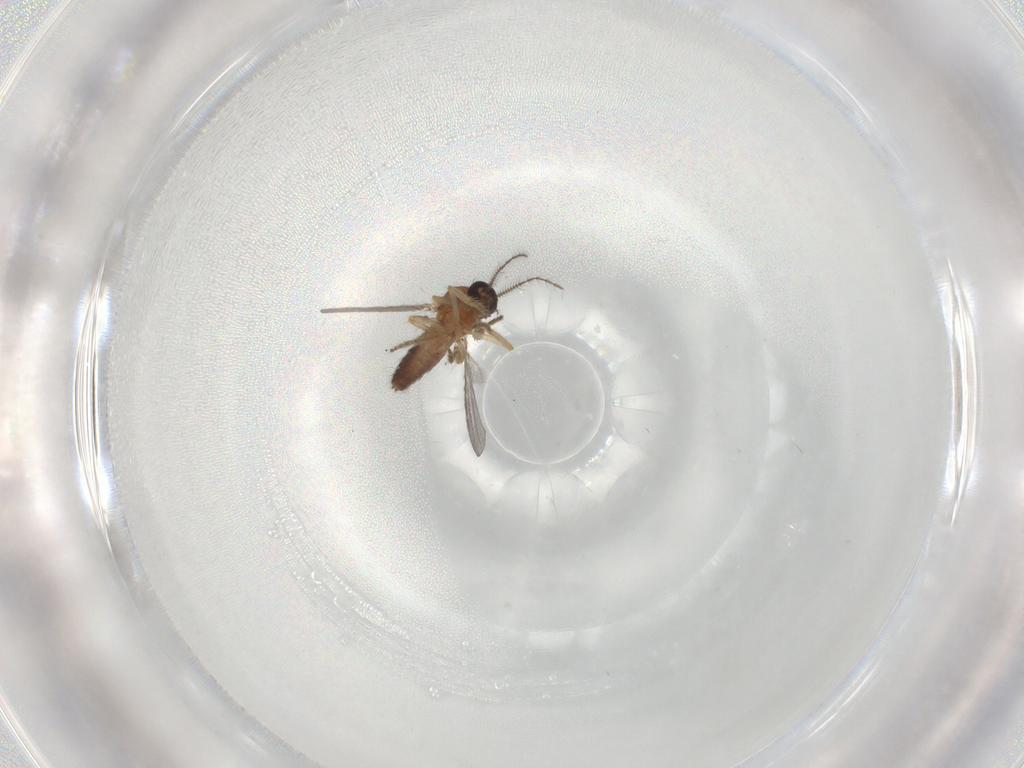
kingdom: Animalia
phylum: Arthropoda
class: Insecta
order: Diptera
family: Ceratopogonidae
